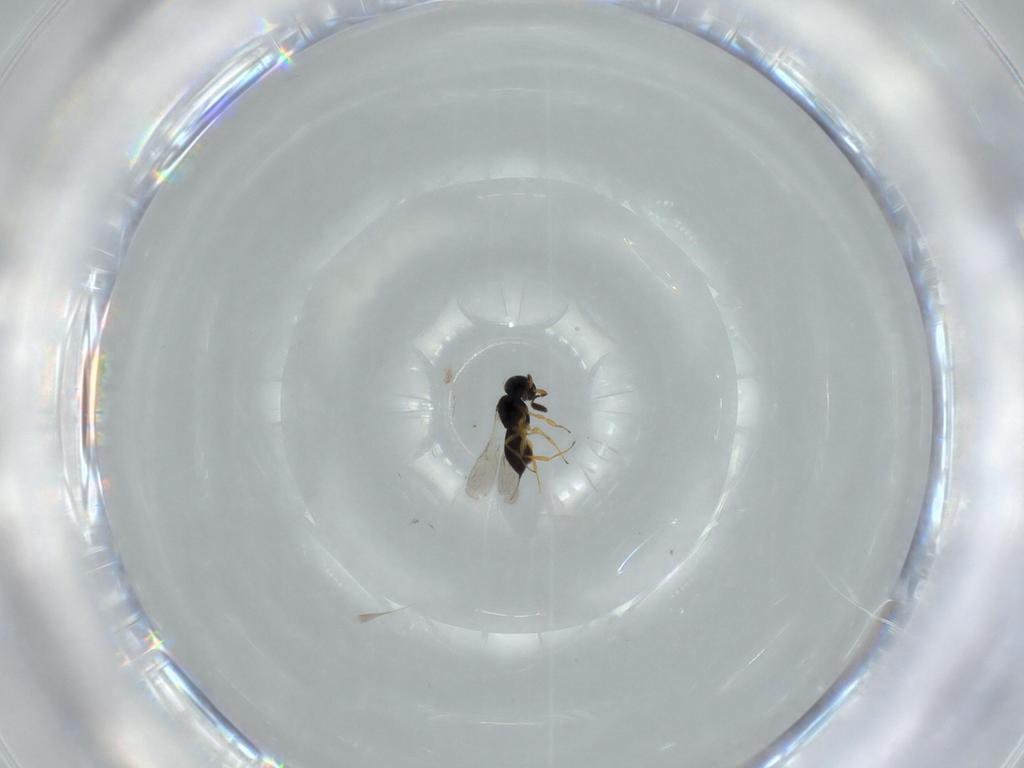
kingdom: Animalia
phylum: Arthropoda
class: Insecta
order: Hymenoptera
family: Scelionidae
